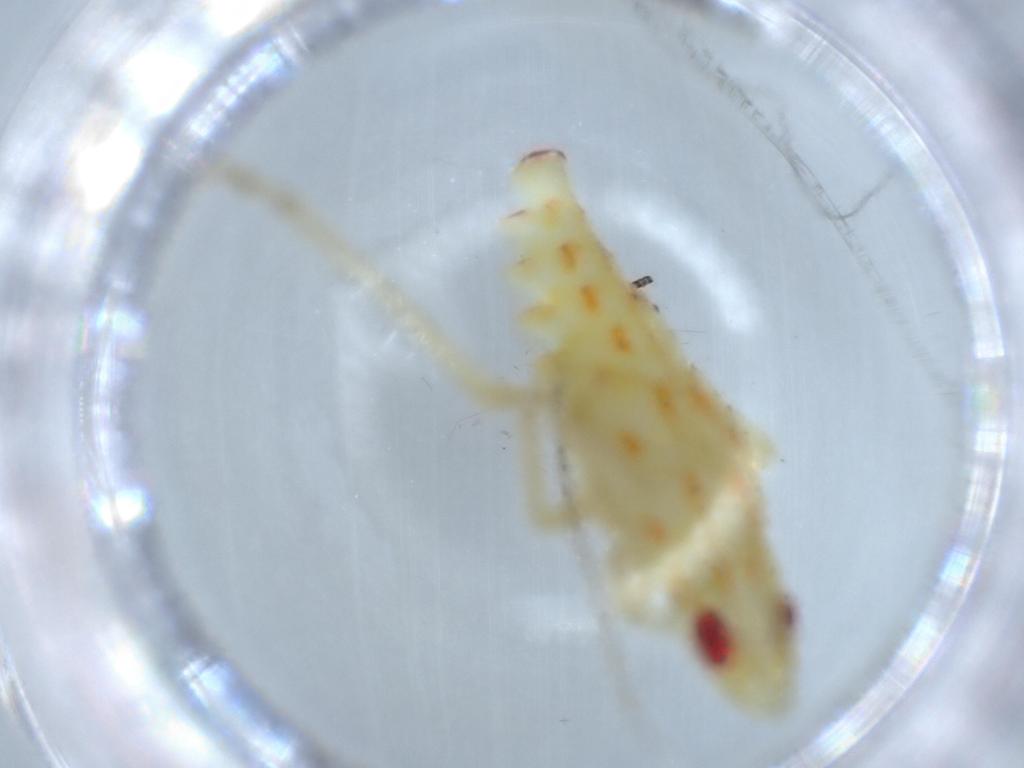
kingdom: Animalia
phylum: Arthropoda
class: Insecta
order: Hemiptera
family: Tropiduchidae
